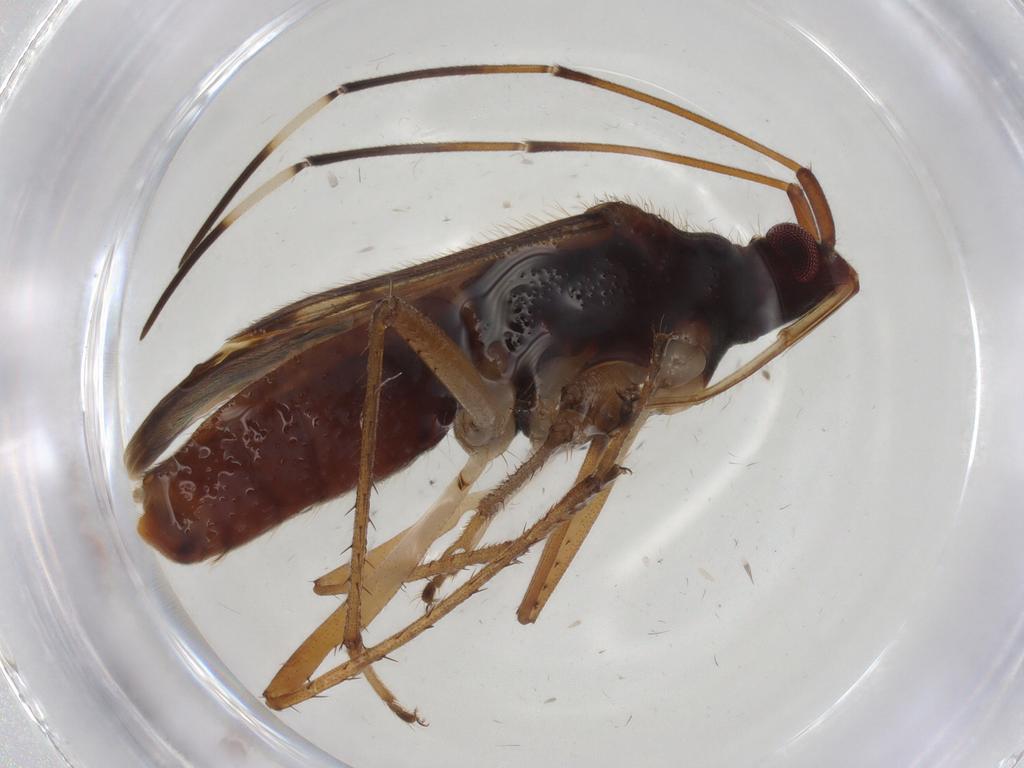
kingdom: Animalia
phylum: Arthropoda
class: Insecta
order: Hemiptera
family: Rhyparochromidae
